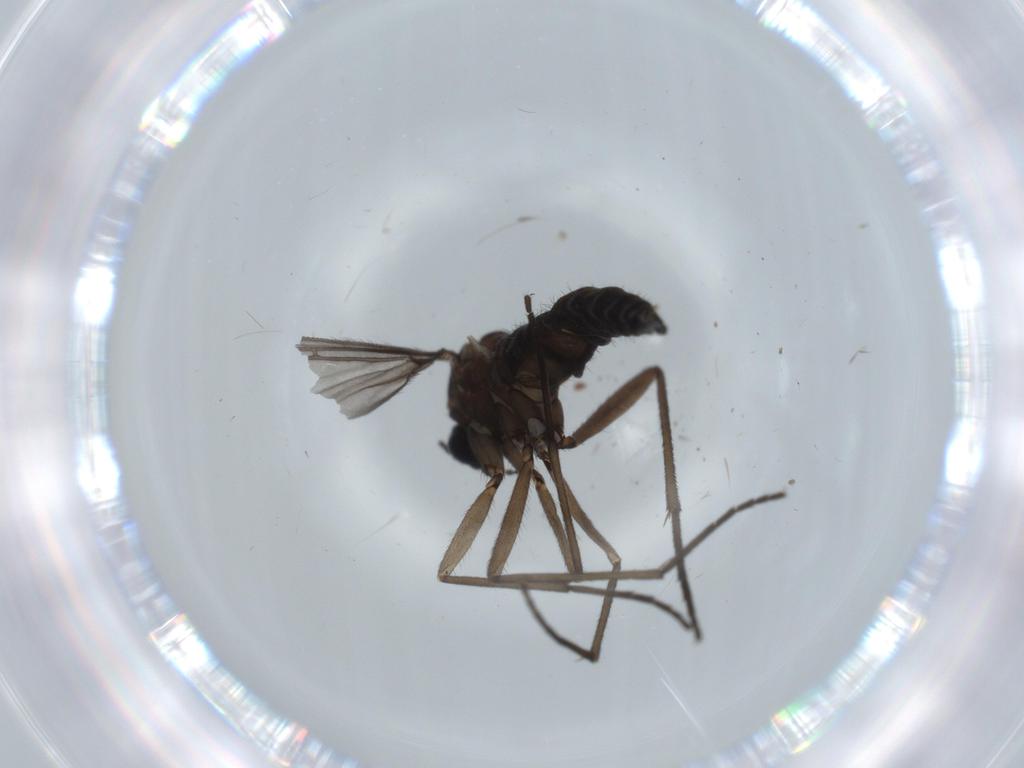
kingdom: Animalia
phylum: Arthropoda
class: Insecta
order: Diptera
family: Sciaridae
